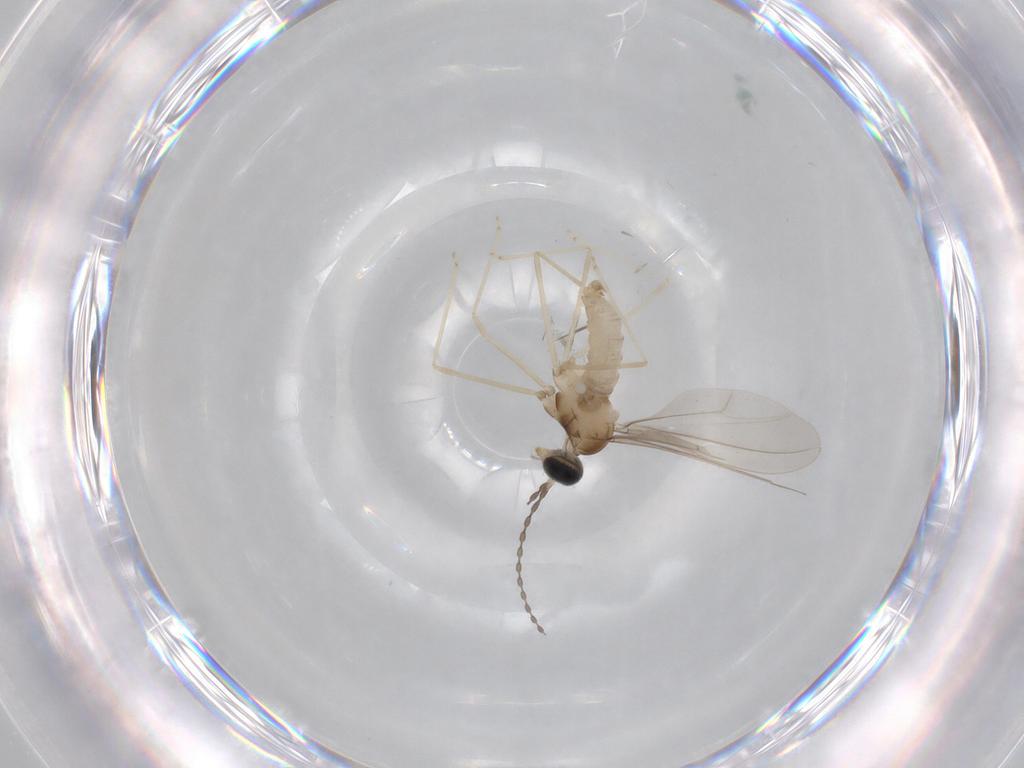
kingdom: Animalia
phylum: Arthropoda
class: Insecta
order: Diptera
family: Cecidomyiidae
